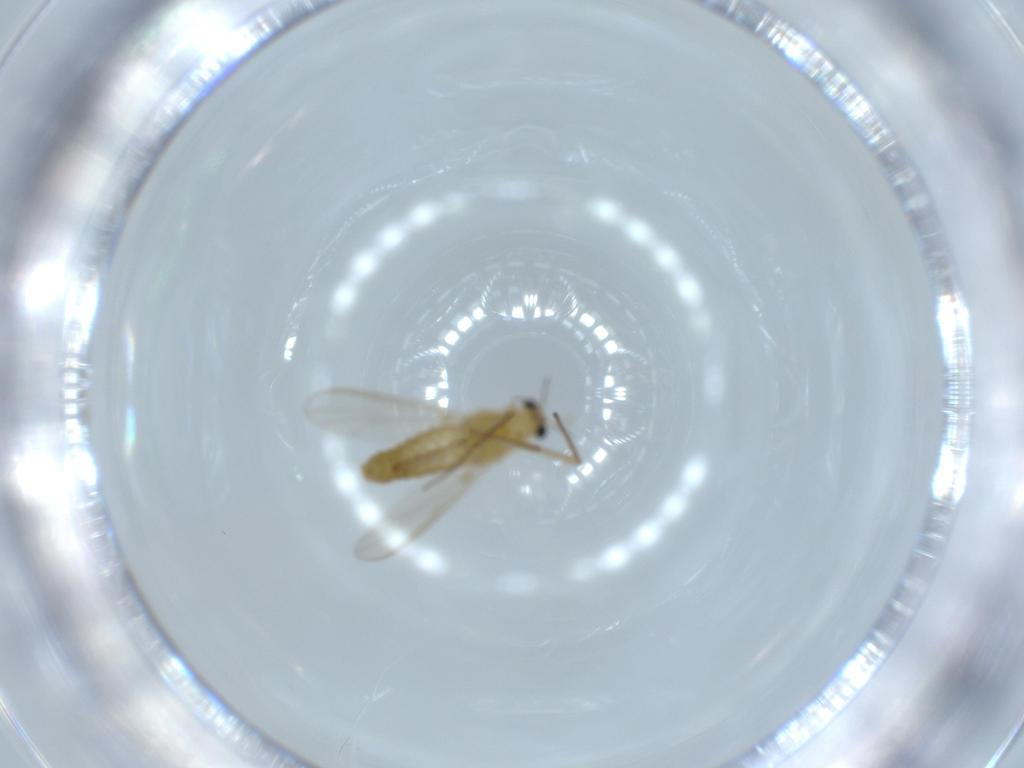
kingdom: Animalia
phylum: Arthropoda
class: Insecta
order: Diptera
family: Chironomidae
